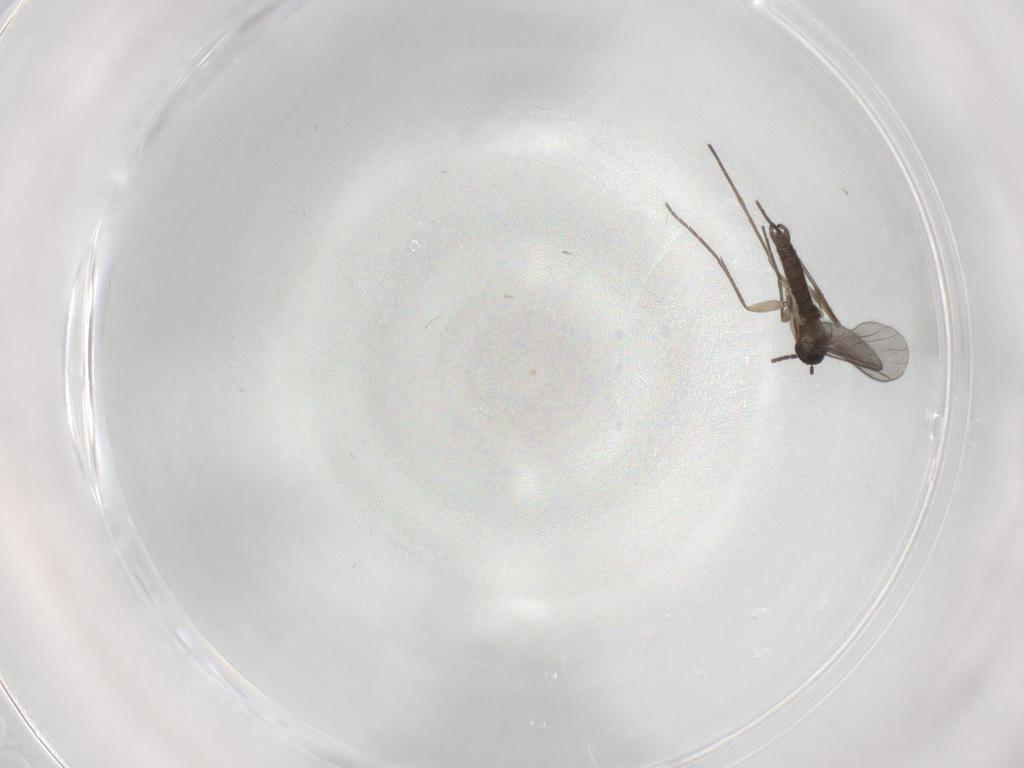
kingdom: Animalia
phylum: Arthropoda
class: Insecta
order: Diptera
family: Sciaridae
